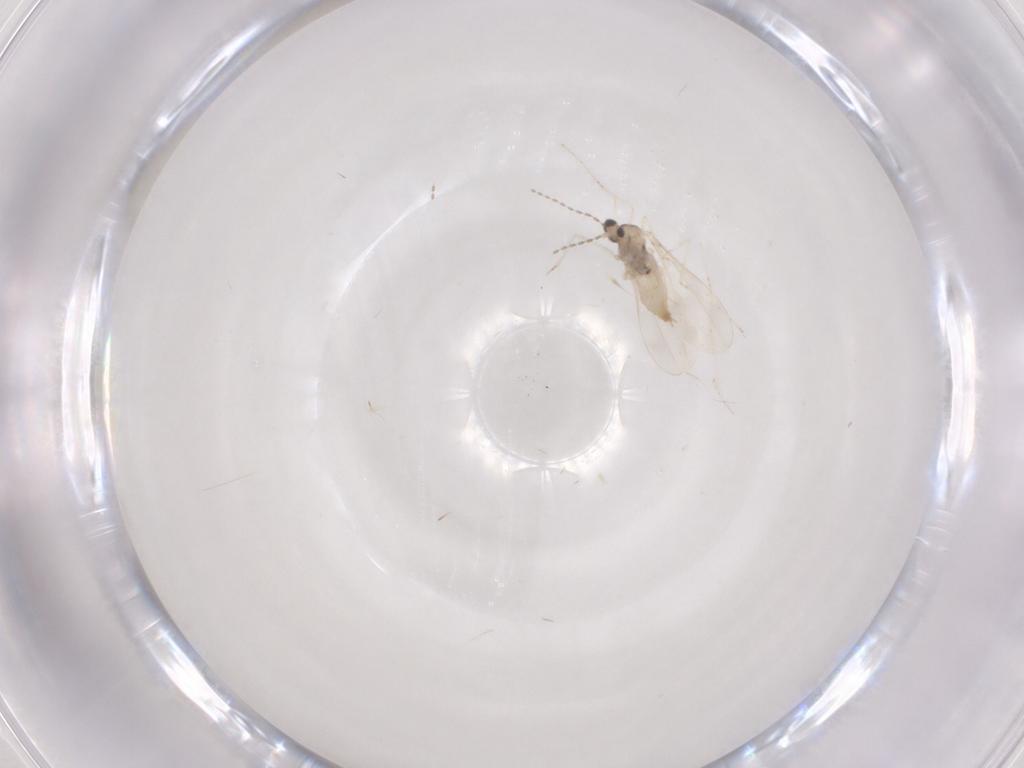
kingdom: Animalia
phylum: Arthropoda
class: Insecta
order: Diptera
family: Cecidomyiidae
